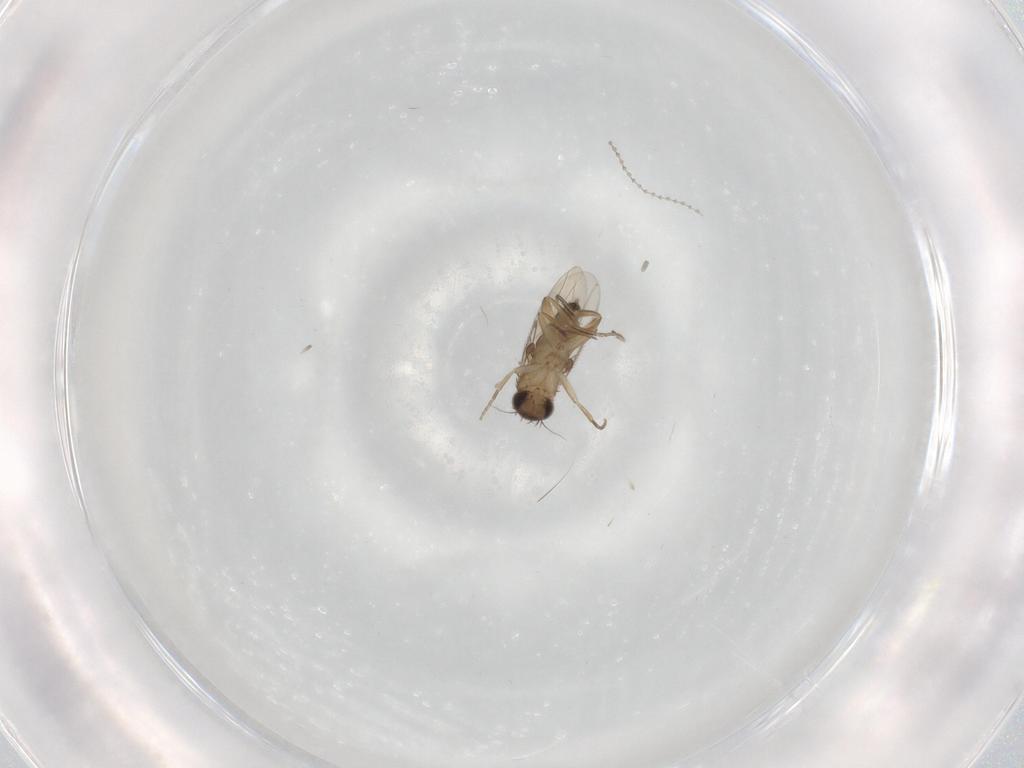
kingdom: Animalia
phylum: Arthropoda
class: Insecta
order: Diptera
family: Phoridae
